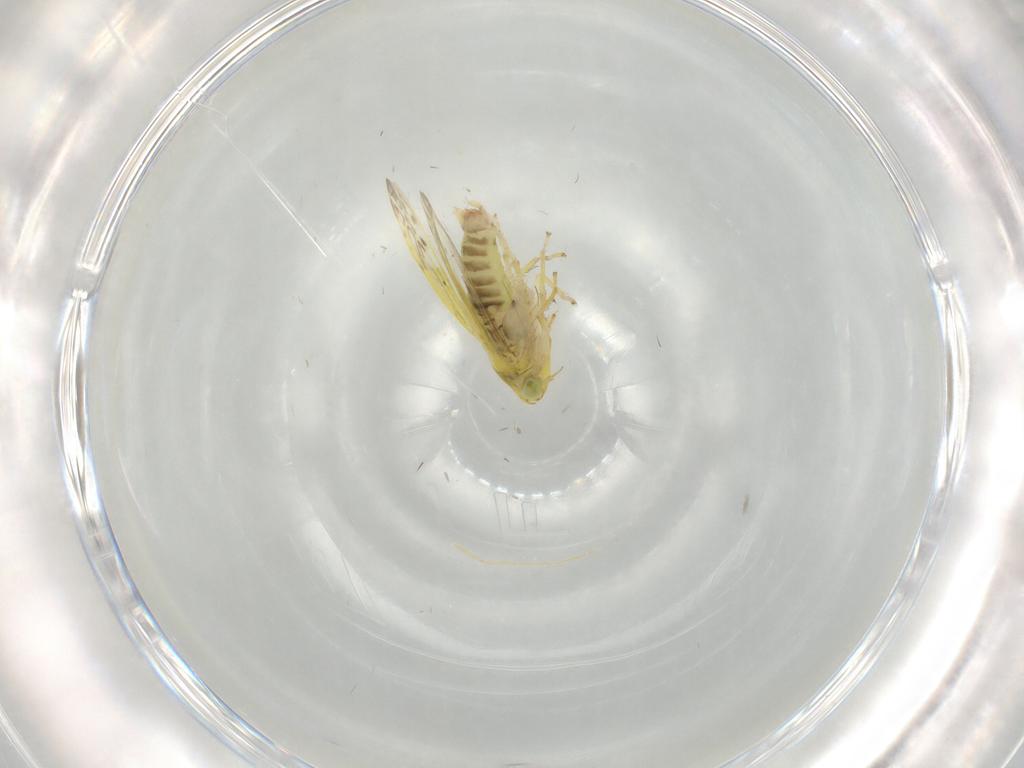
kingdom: Animalia
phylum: Arthropoda
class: Insecta
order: Hemiptera
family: Cicadellidae
